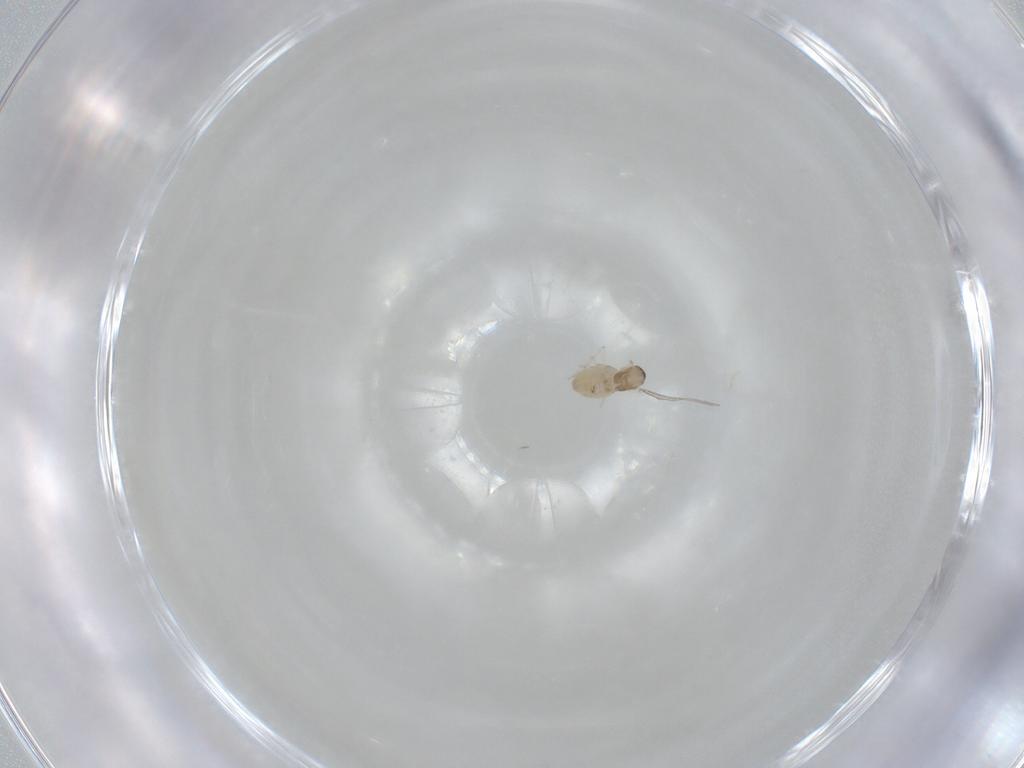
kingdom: Animalia
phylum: Arthropoda
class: Insecta
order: Diptera
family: Cecidomyiidae
